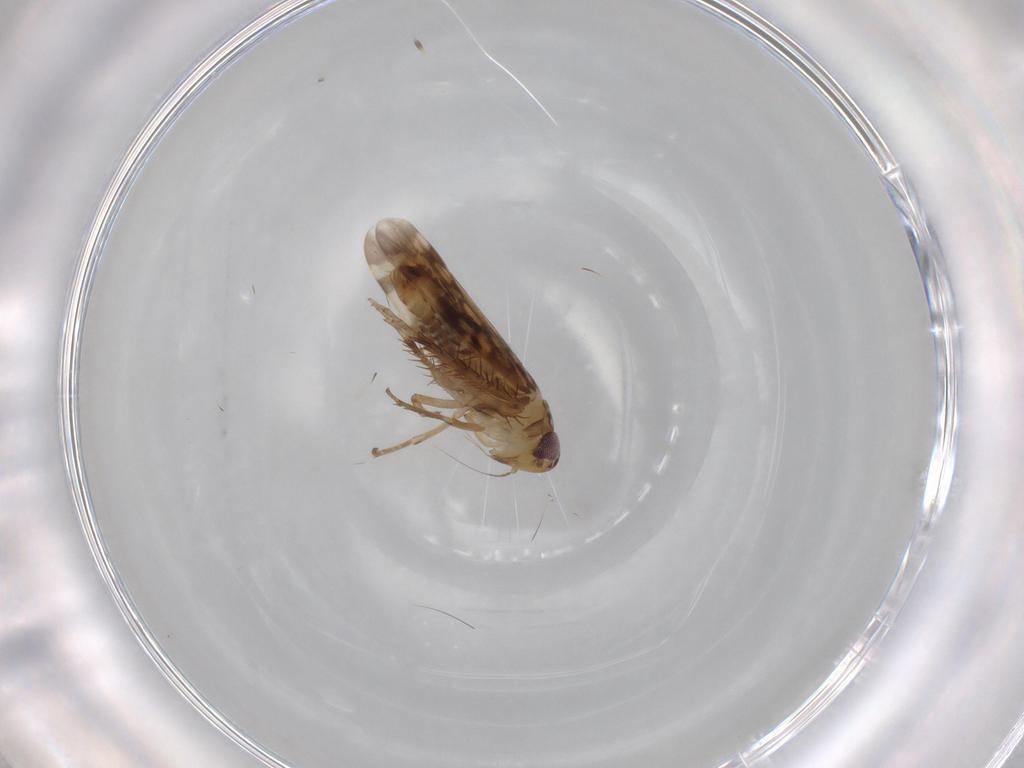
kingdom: Animalia
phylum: Arthropoda
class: Insecta
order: Hemiptera
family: Cicadellidae
